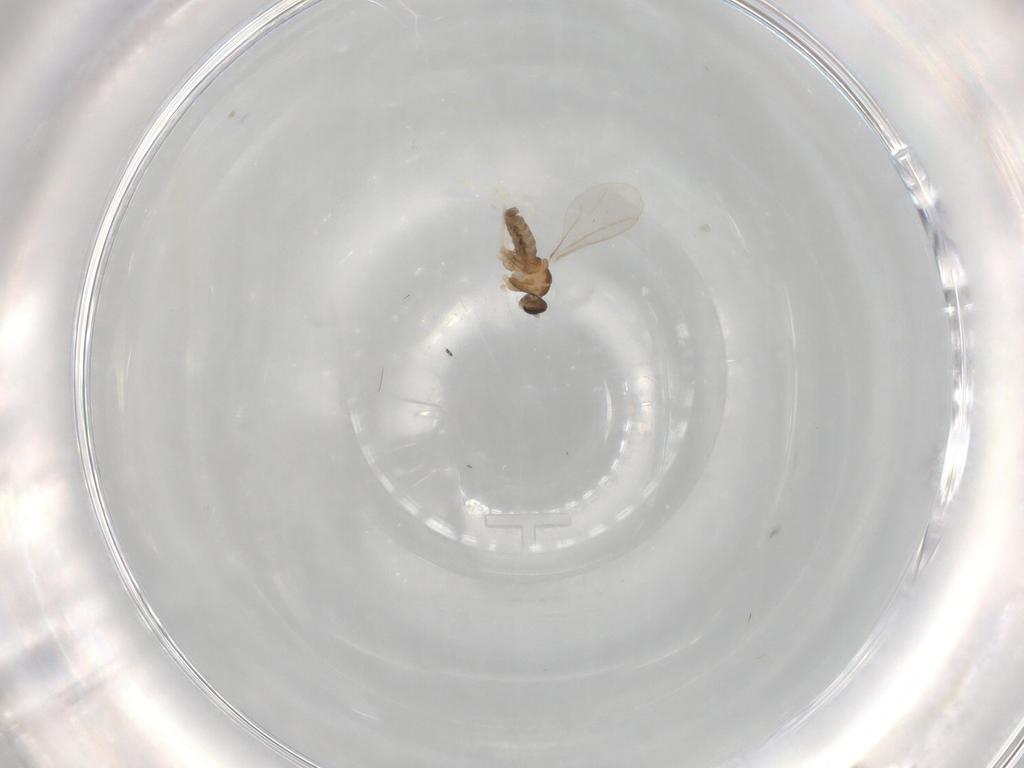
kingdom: Animalia
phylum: Arthropoda
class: Insecta
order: Diptera
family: Cecidomyiidae
